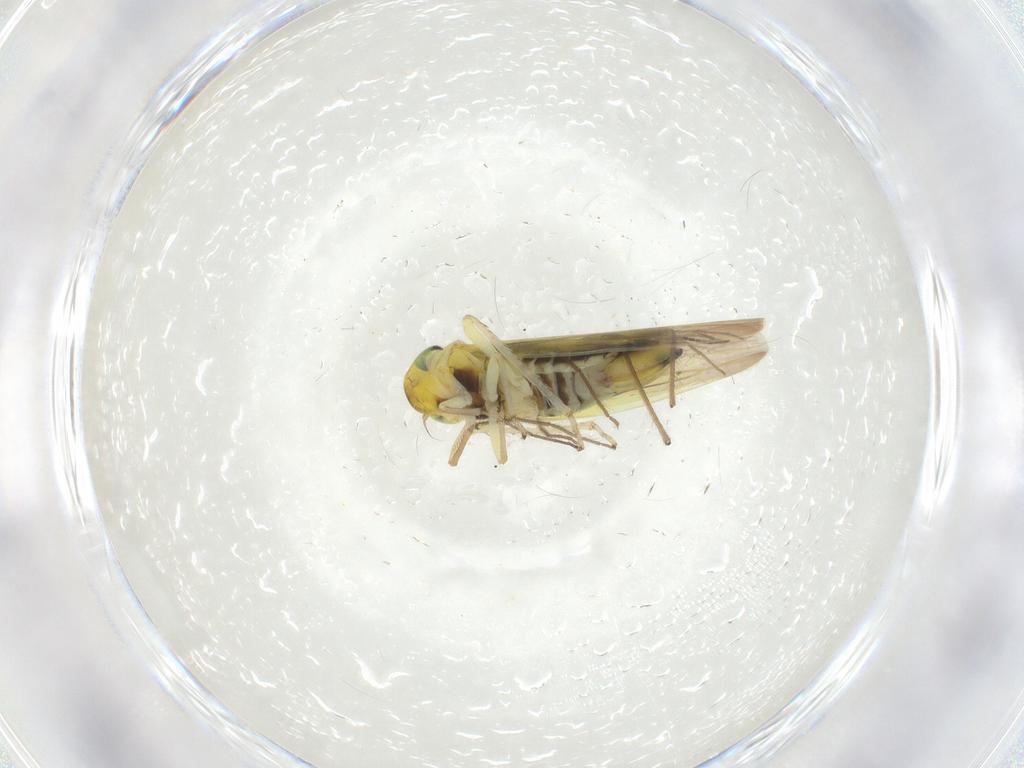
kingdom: Animalia
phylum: Arthropoda
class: Insecta
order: Hemiptera
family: Cicadellidae
